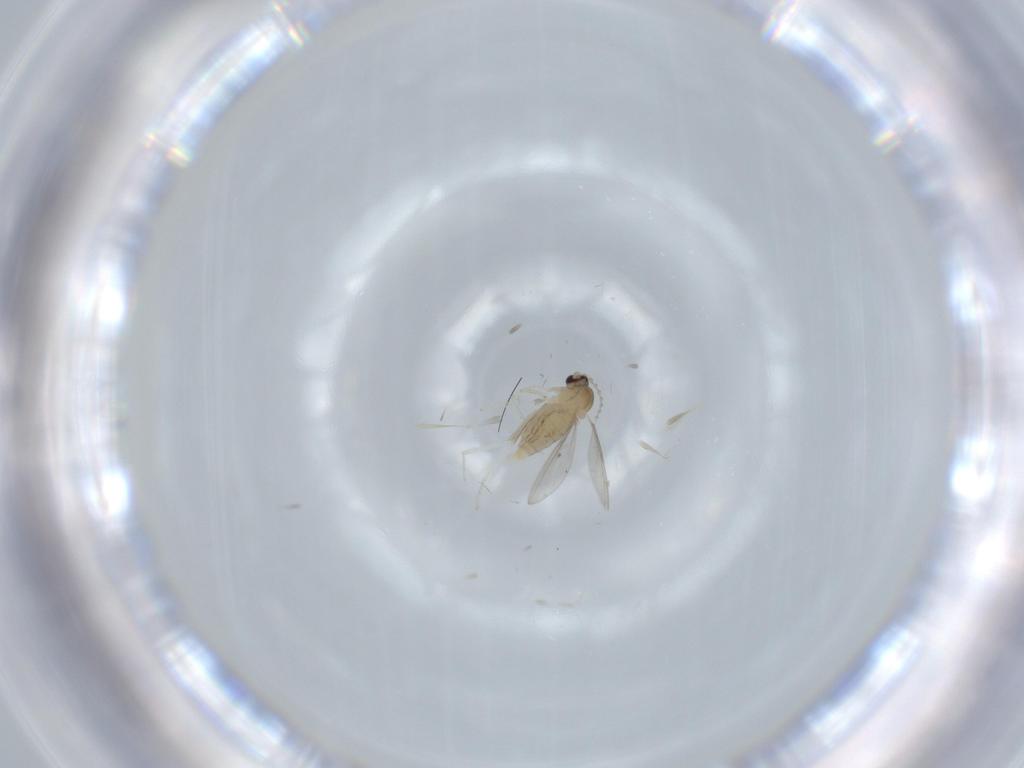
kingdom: Animalia
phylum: Arthropoda
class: Insecta
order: Diptera
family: Cecidomyiidae
